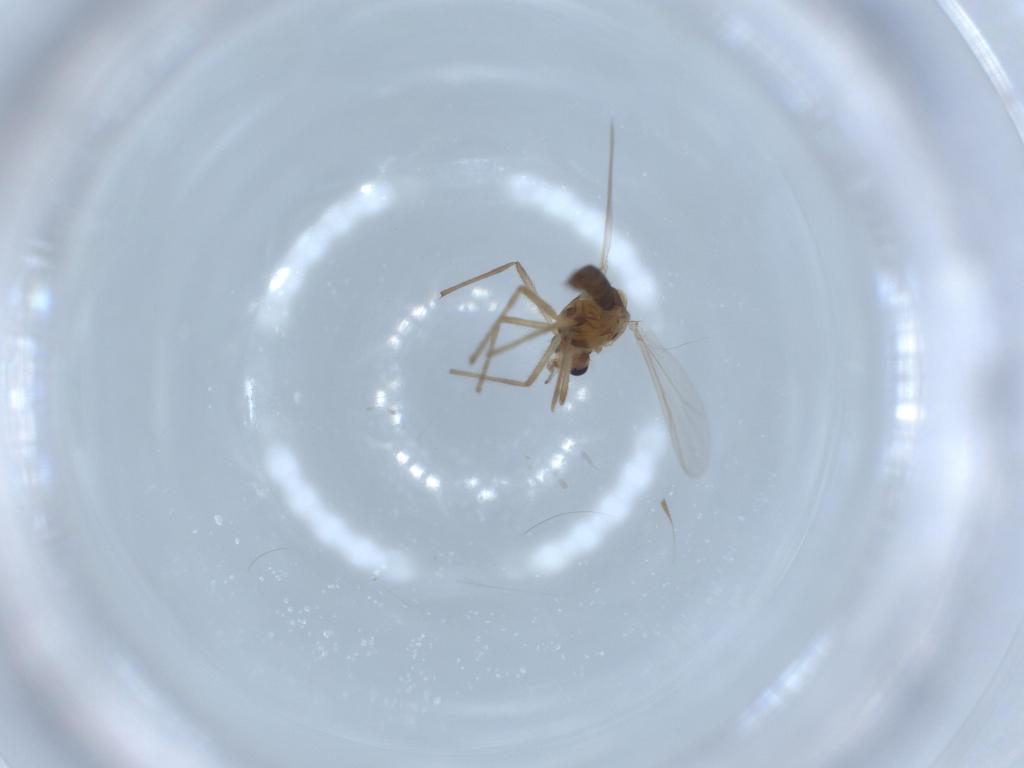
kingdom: Animalia
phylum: Arthropoda
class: Insecta
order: Diptera
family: Chironomidae
